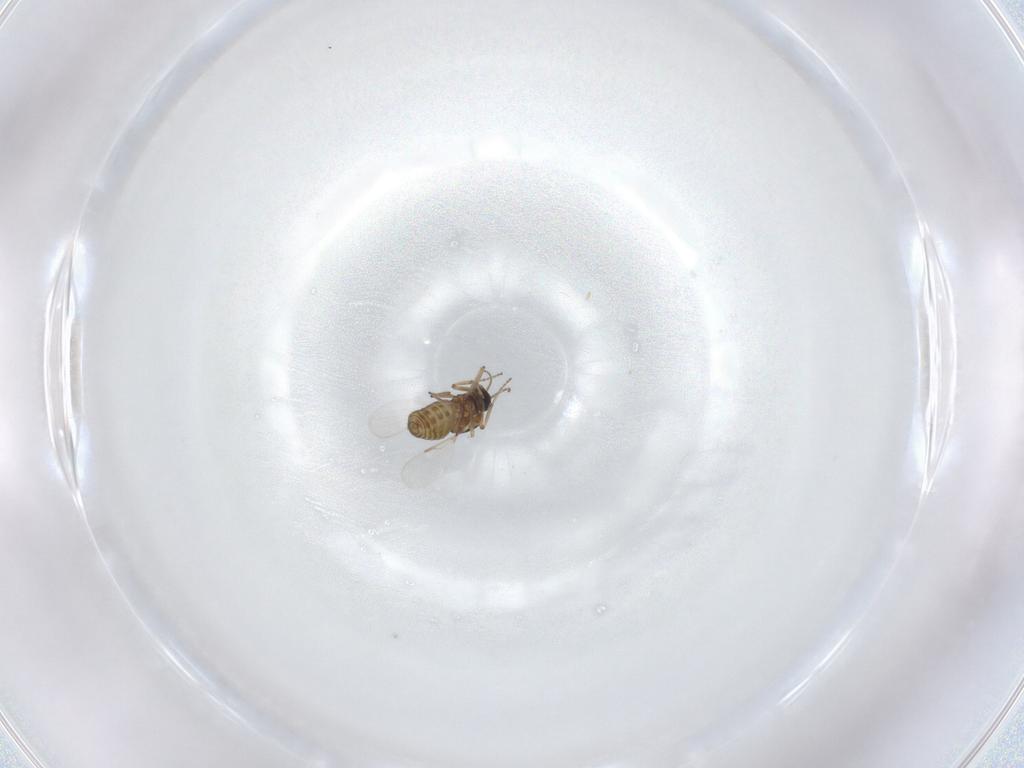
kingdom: Animalia
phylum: Arthropoda
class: Insecta
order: Diptera
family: Ceratopogonidae
